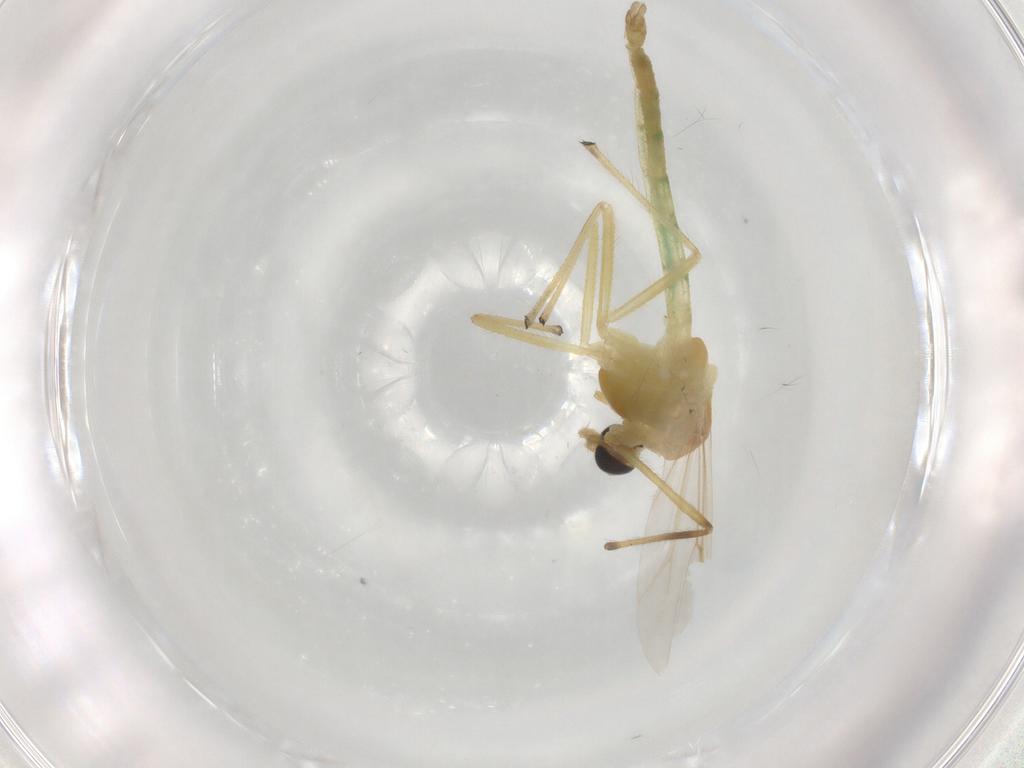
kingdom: Animalia
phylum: Arthropoda
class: Insecta
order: Diptera
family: Chironomidae
